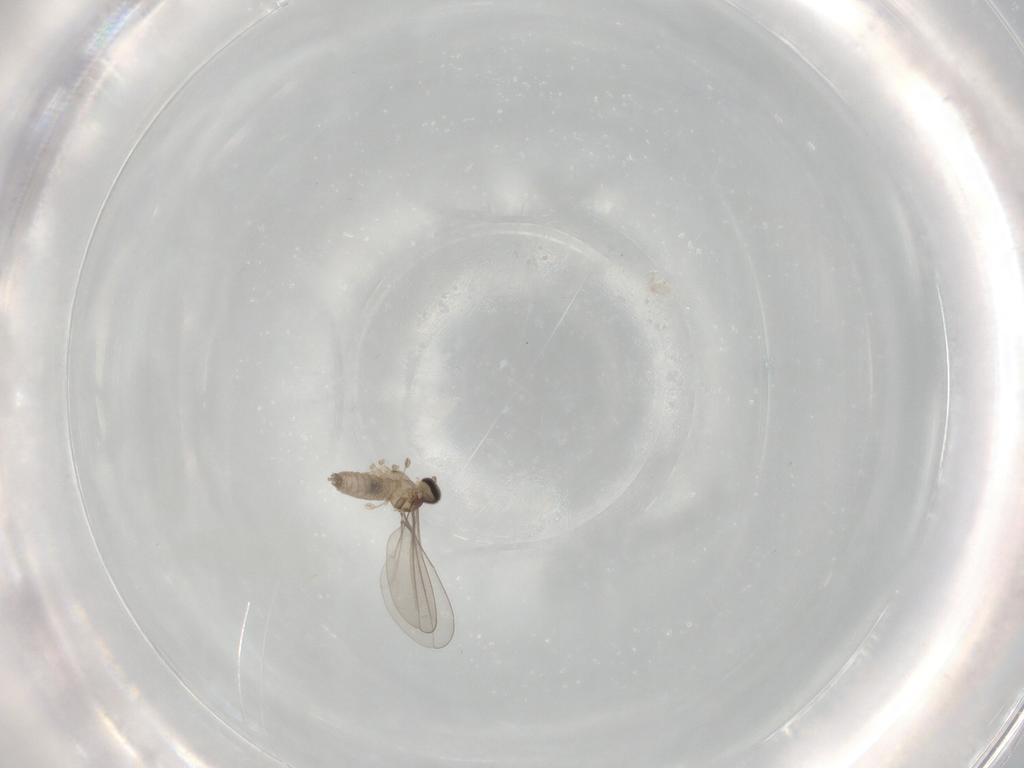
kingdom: Animalia
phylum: Arthropoda
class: Insecta
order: Diptera
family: Cecidomyiidae
